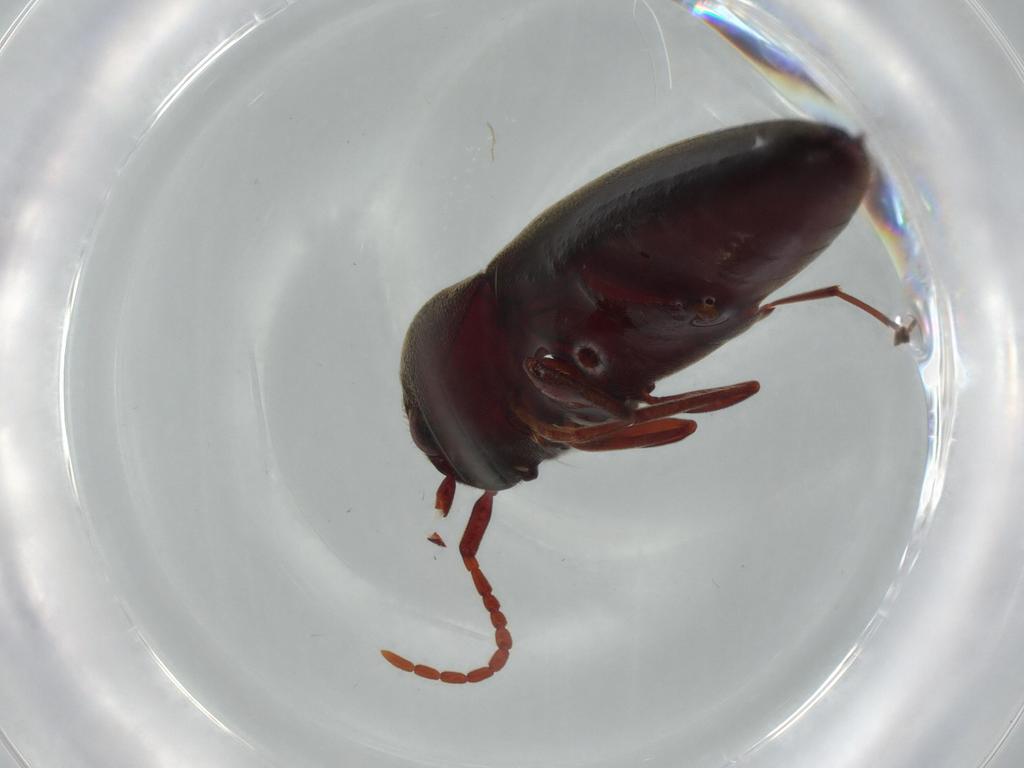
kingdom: Animalia
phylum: Arthropoda
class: Insecta
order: Coleoptera
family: Eucnemidae
